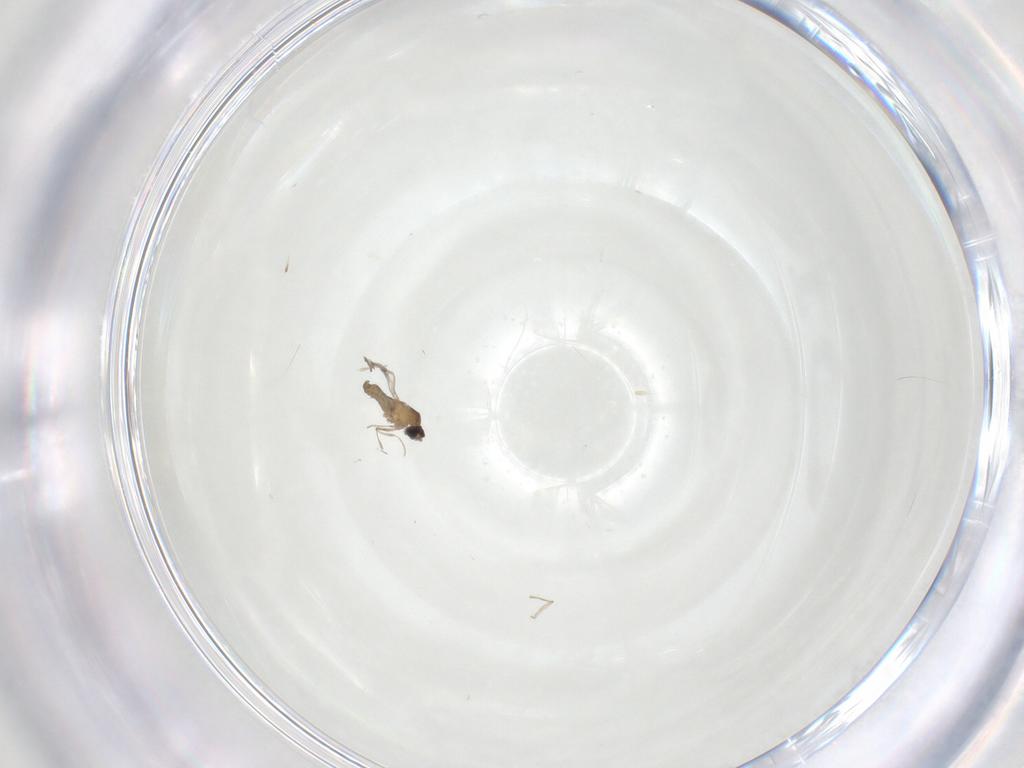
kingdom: Animalia
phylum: Arthropoda
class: Insecta
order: Diptera
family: Cecidomyiidae
